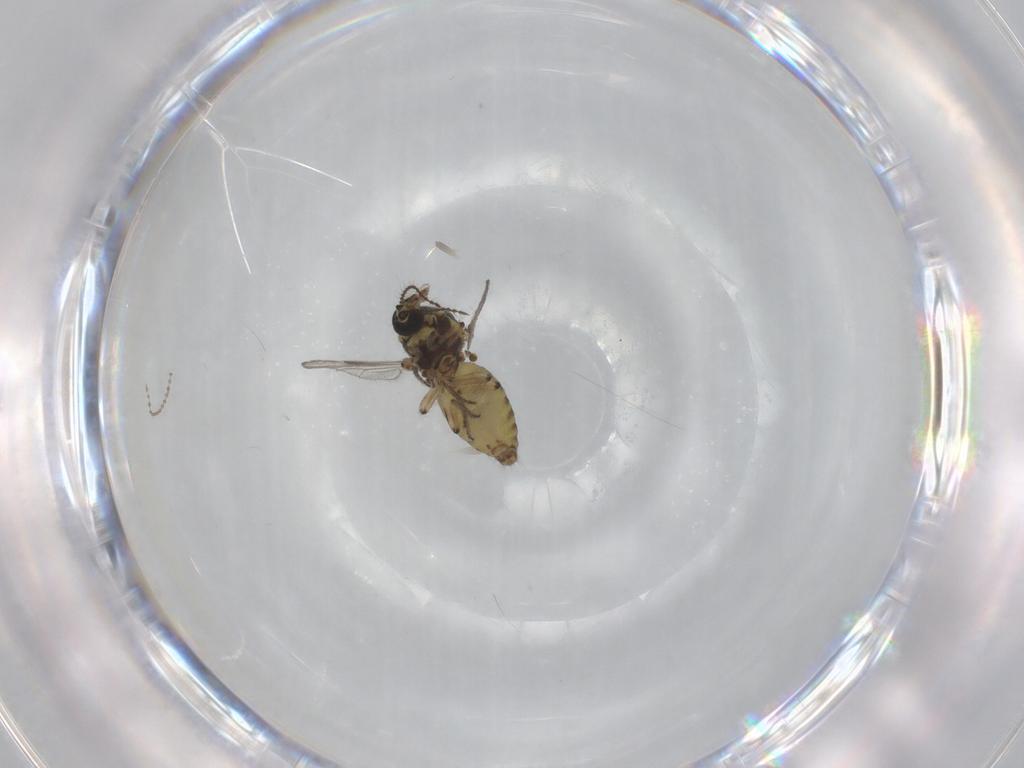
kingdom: Animalia
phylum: Arthropoda
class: Insecta
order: Diptera
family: Cecidomyiidae
